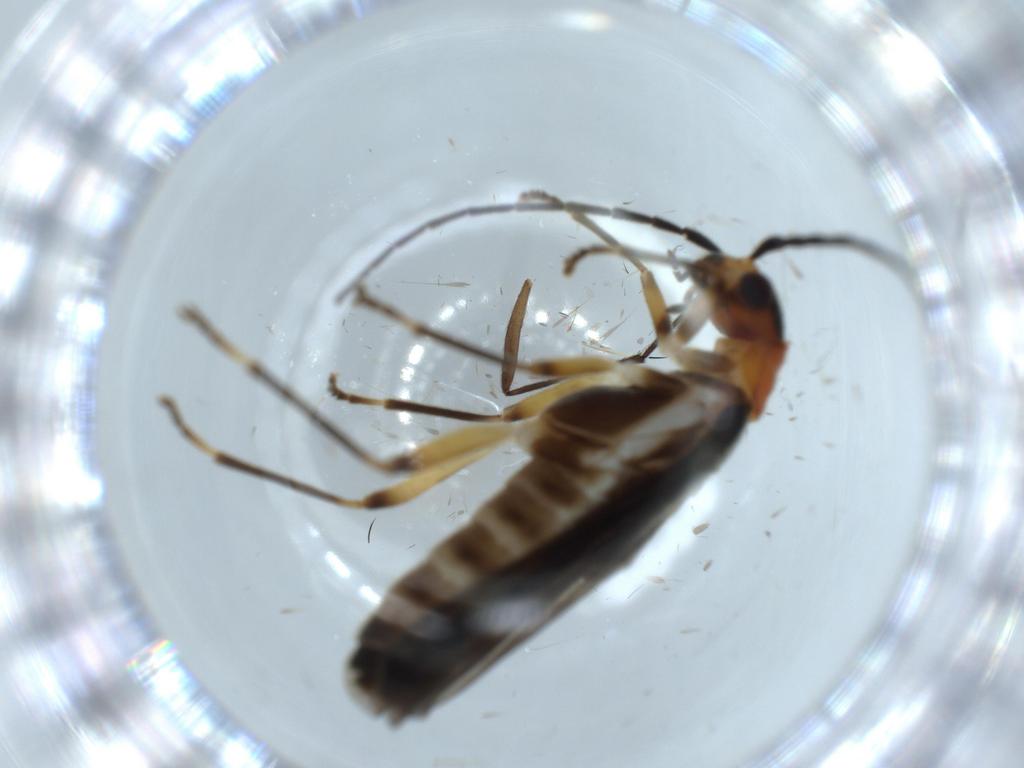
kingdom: Animalia
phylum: Arthropoda
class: Insecta
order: Coleoptera
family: Cantharidae
